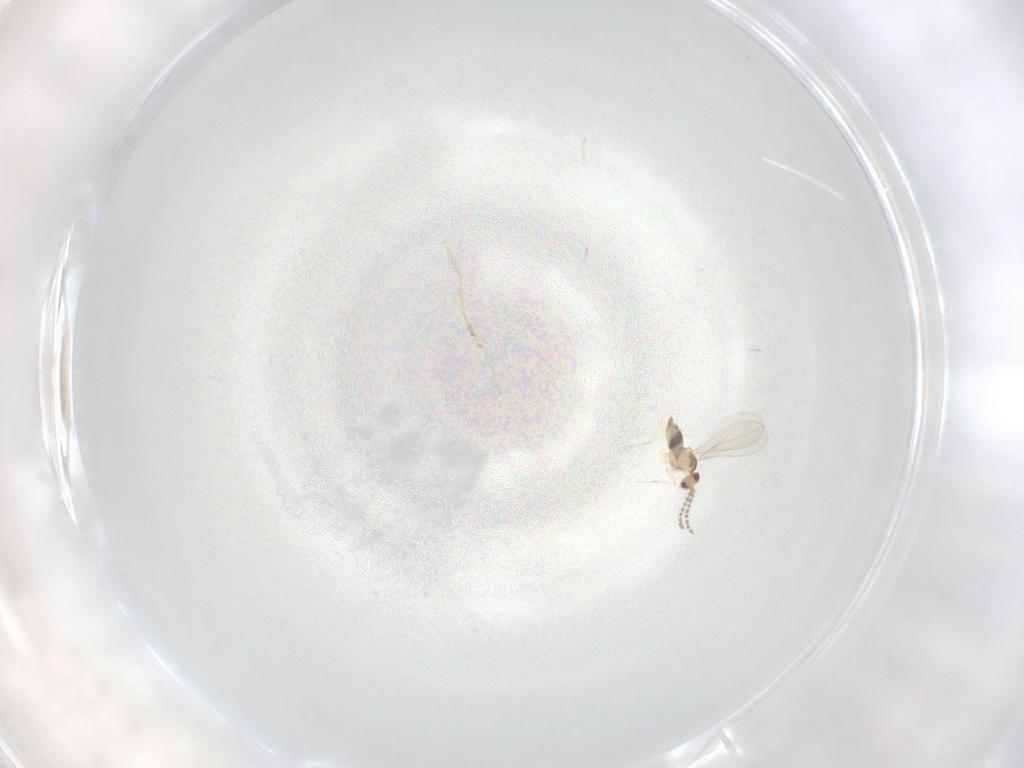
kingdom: Animalia
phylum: Arthropoda
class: Insecta
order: Diptera
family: Cecidomyiidae
